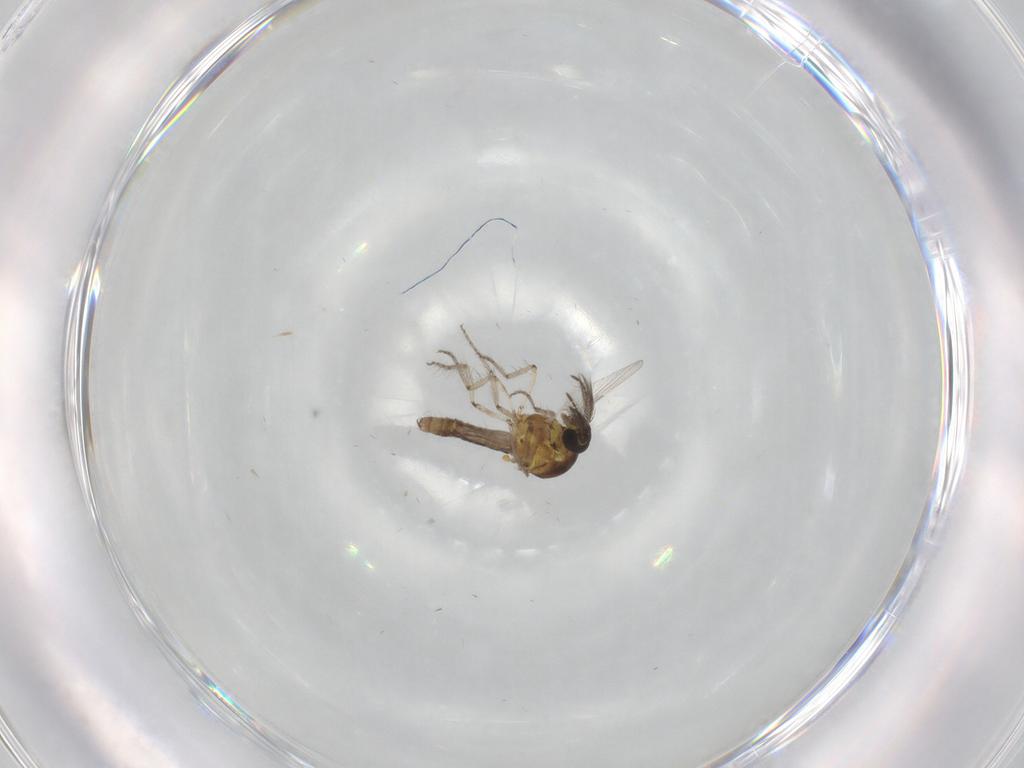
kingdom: Animalia
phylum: Arthropoda
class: Insecta
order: Diptera
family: Ceratopogonidae
